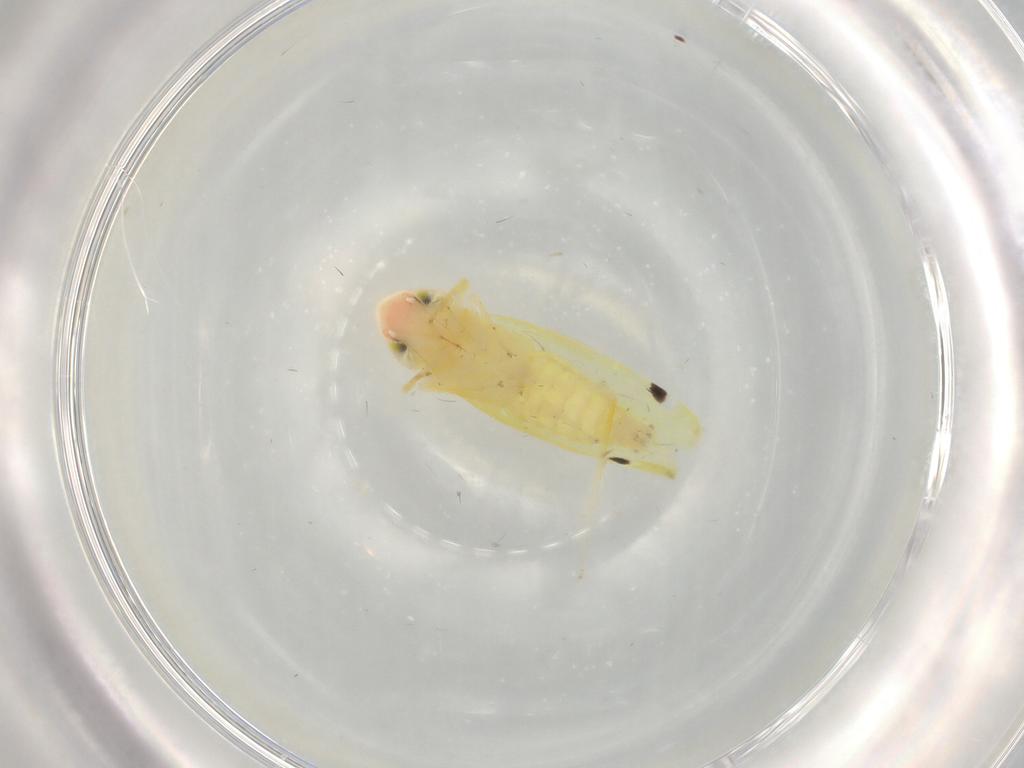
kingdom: Animalia
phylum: Arthropoda
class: Insecta
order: Hemiptera
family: Cicadellidae
